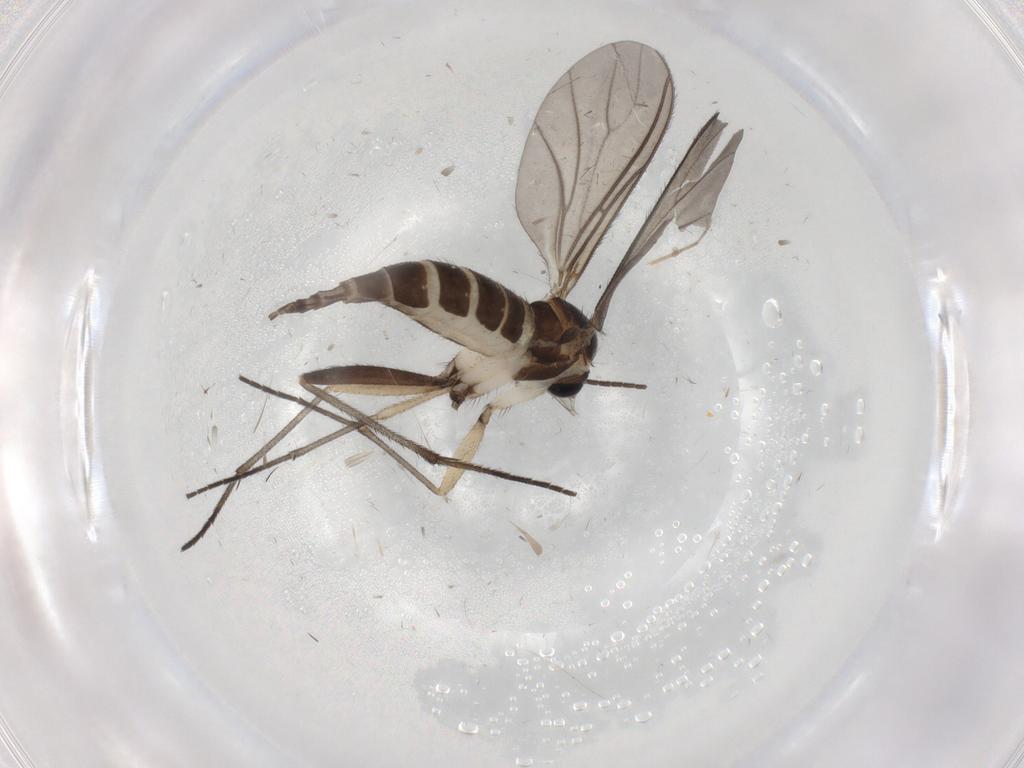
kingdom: Animalia
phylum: Arthropoda
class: Insecta
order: Diptera
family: Sciaridae
